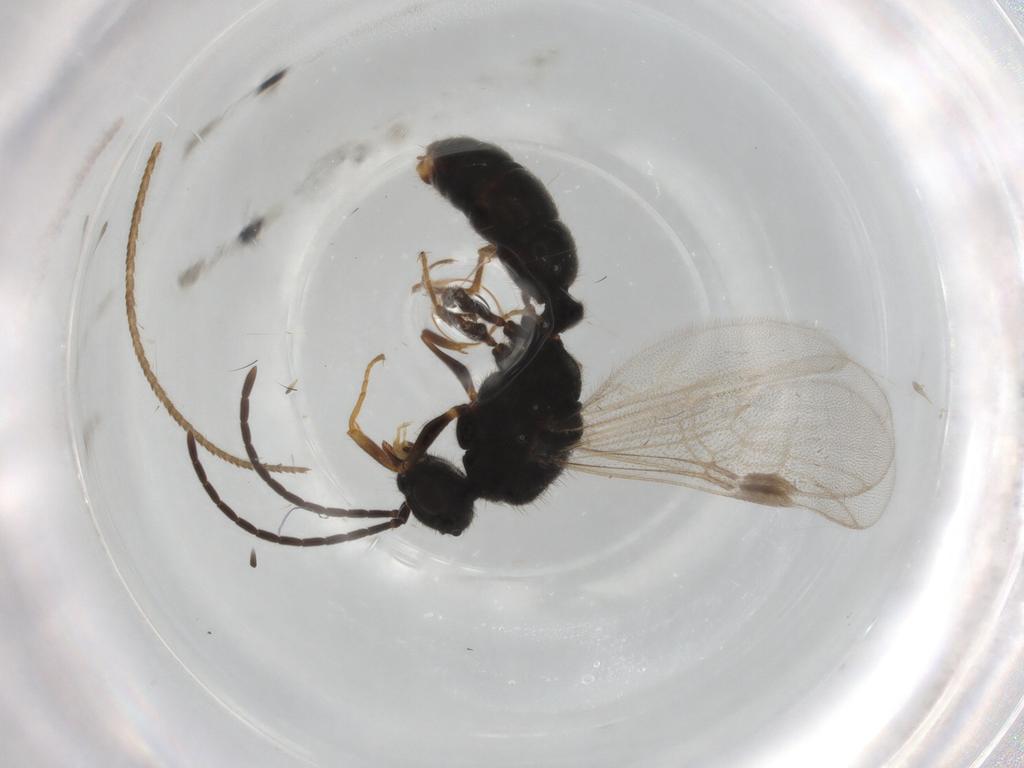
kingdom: Animalia
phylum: Arthropoda
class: Insecta
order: Hymenoptera
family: Formicidae
